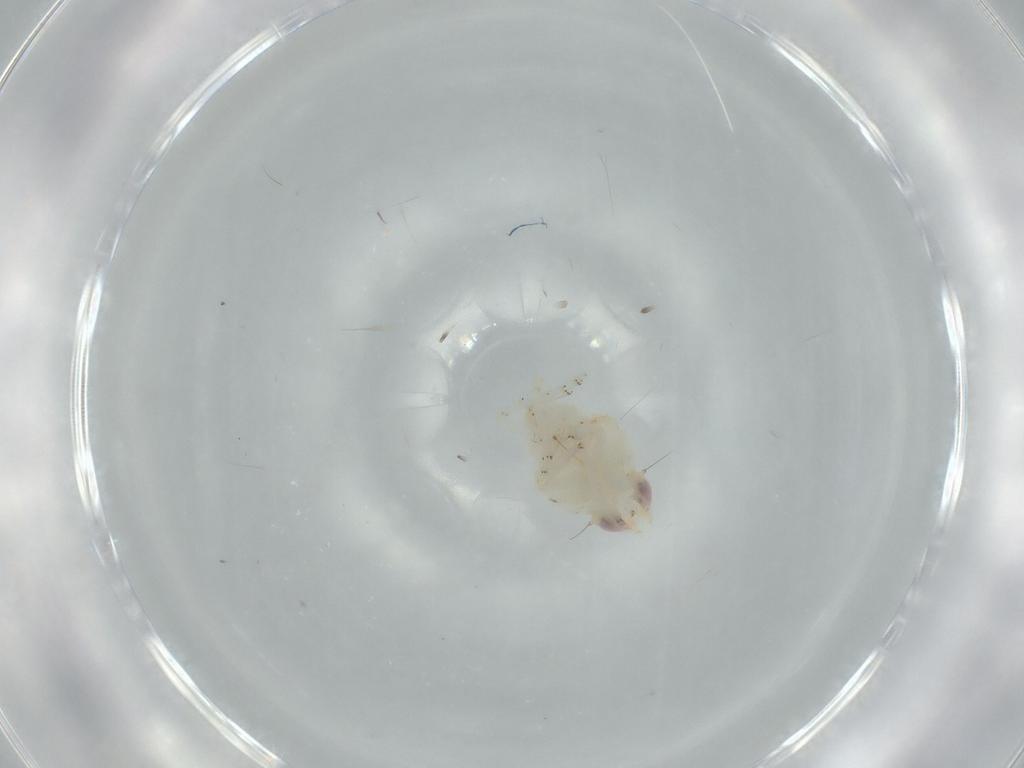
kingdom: Animalia
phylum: Arthropoda
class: Insecta
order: Hemiptera
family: Nogodinidae
